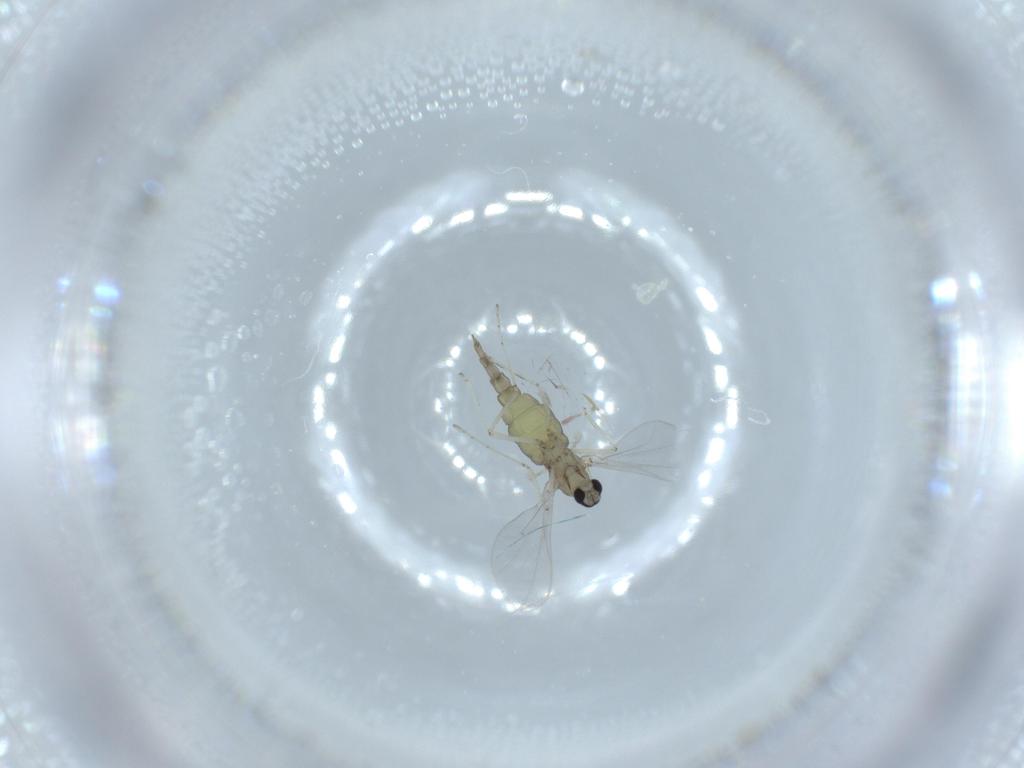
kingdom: Animalia
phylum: Arthropoda
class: Insecta
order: Diptera
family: Cecidomyiidae
